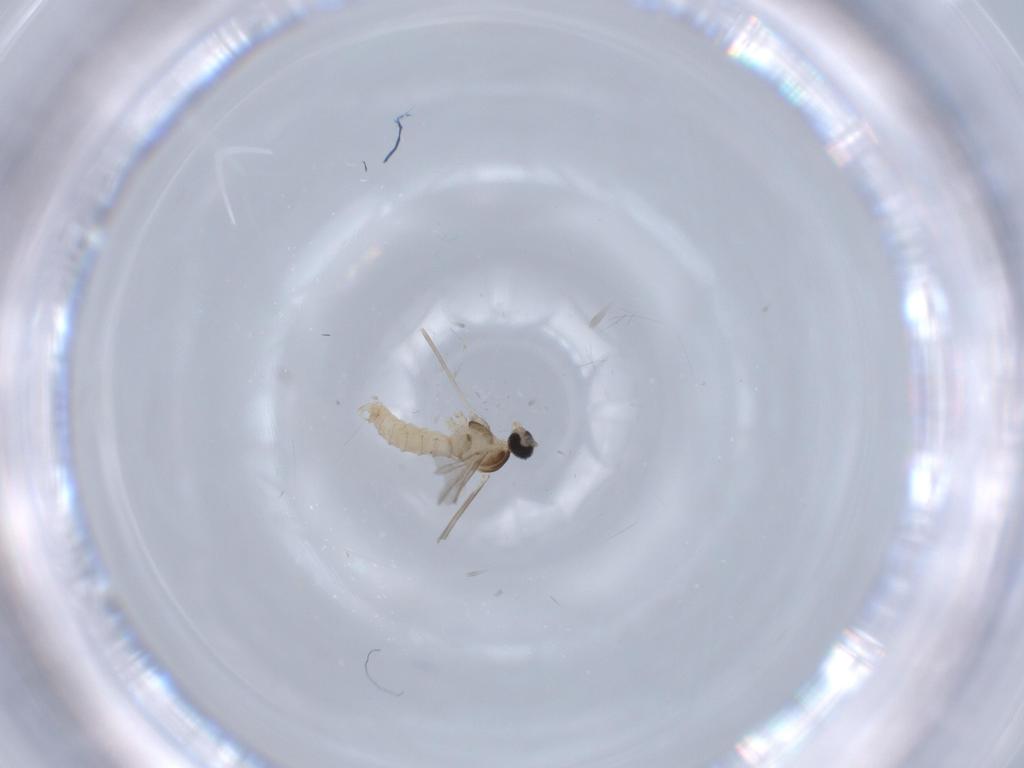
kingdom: Animalia
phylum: Arthropoda
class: Insecta
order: Diptera
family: Cecidomyiidae
